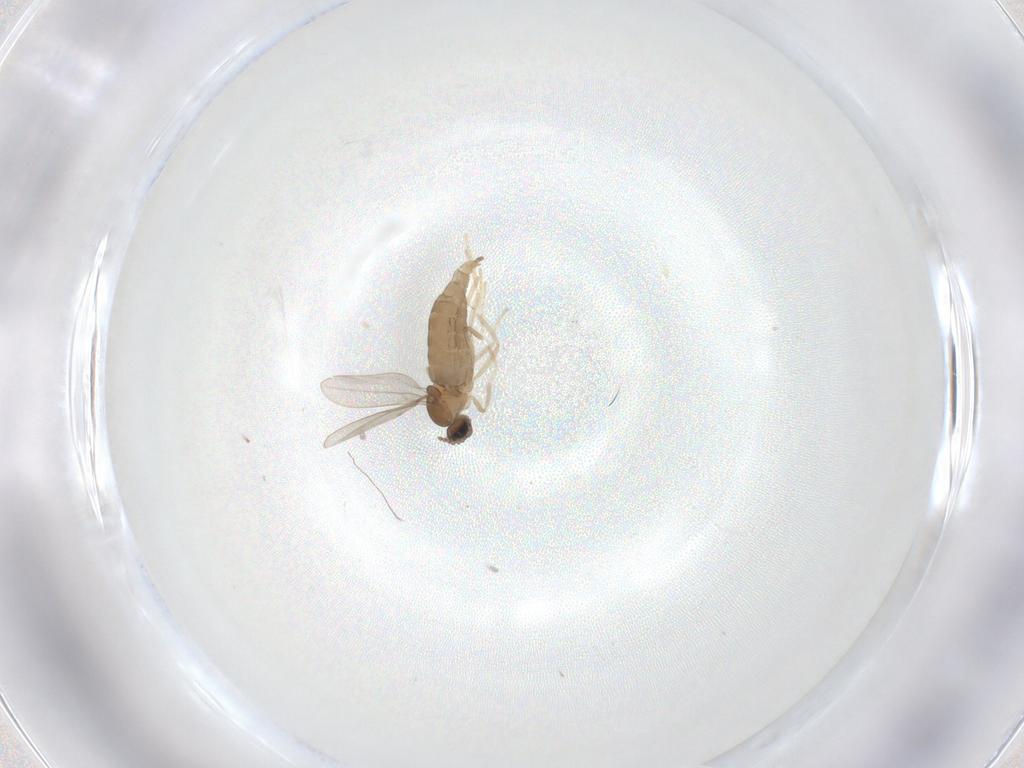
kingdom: Animalia
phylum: Arthropoda
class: Insecta
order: Diptera
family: Cecidomyiidae
